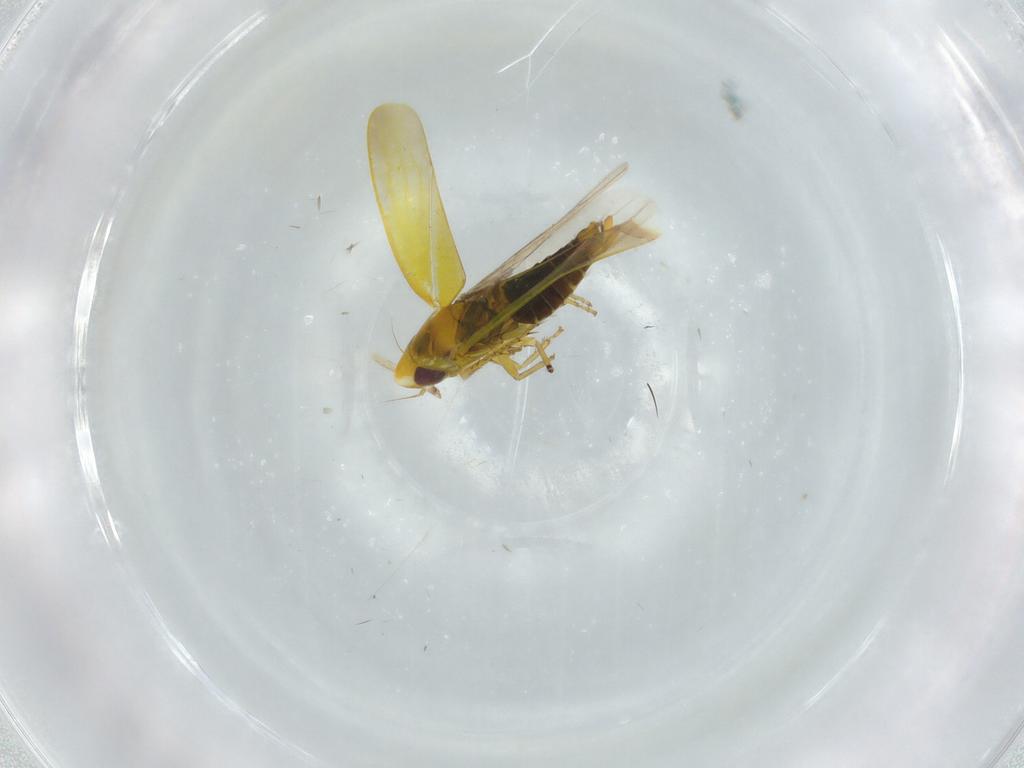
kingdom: Animalia
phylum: Arthropoda
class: Insecta
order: Hemiptera
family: Cicadellidae
